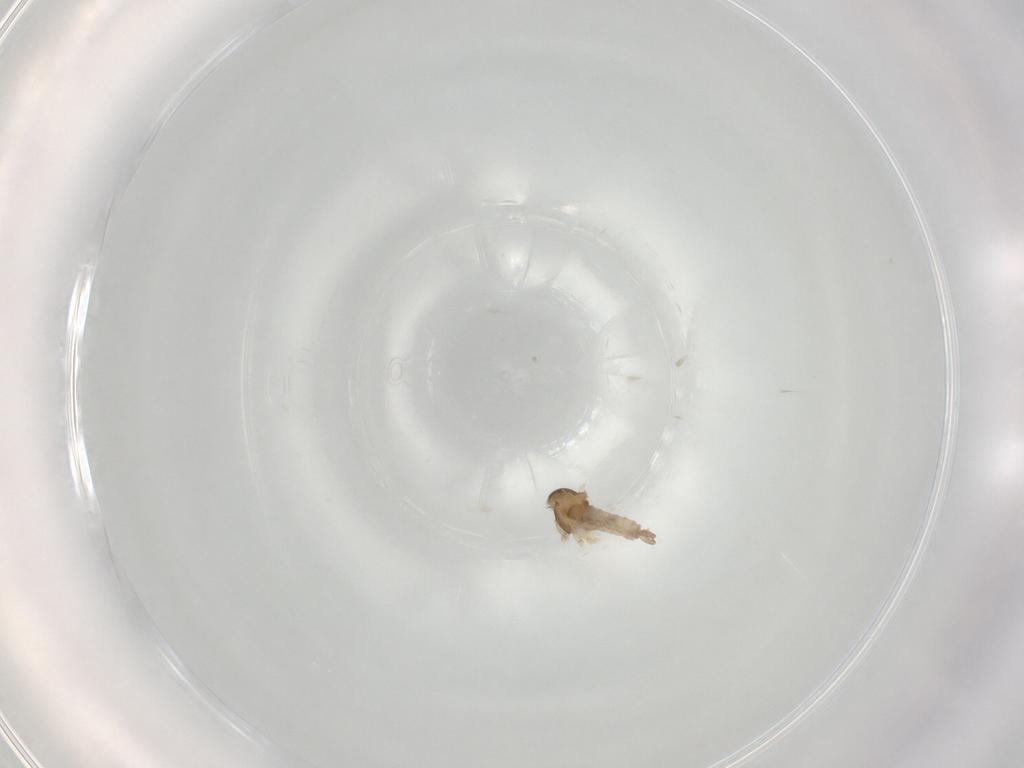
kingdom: Animalia
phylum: Arthropoda
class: Insecta
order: Diptera
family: Cecidomyiidae
